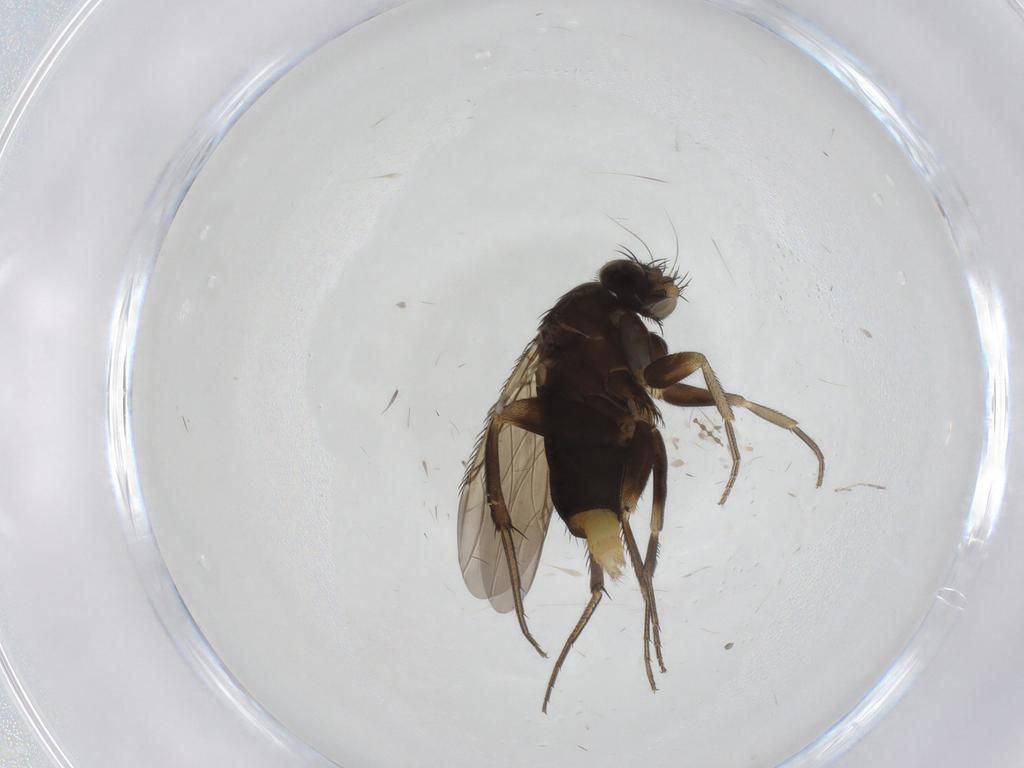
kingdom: Animalia
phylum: Arthropoda
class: Insecta
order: Diptera
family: Phoridae
